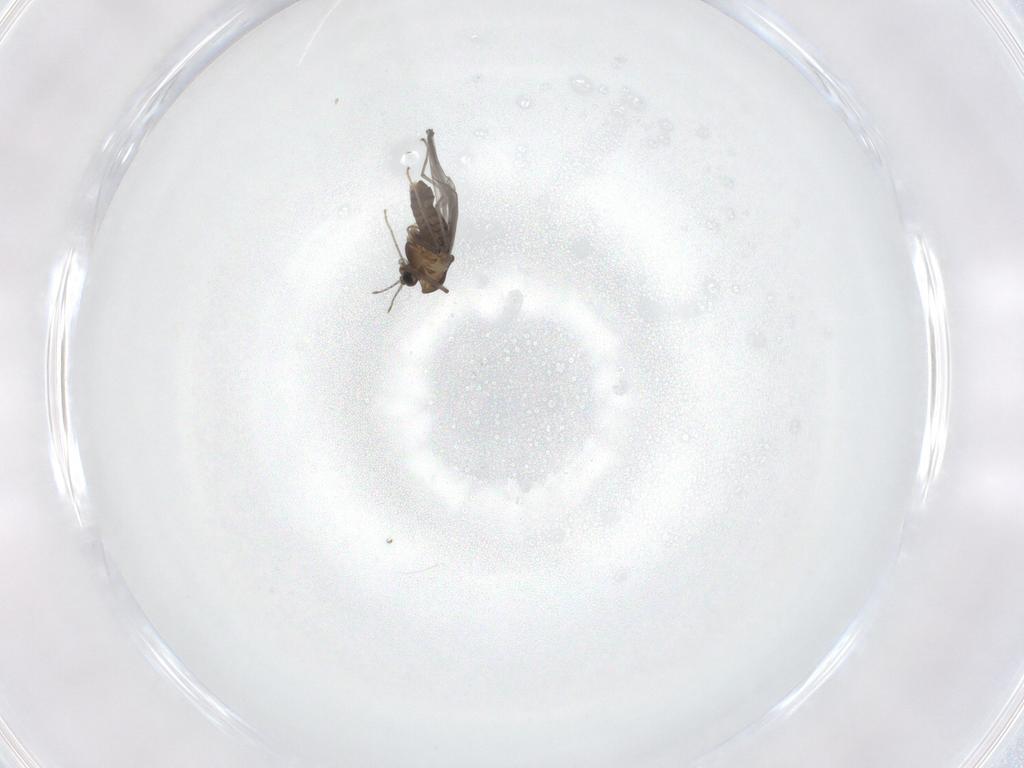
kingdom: Animalia
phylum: Arthropoda
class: Insecta
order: Diptera
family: Chironomidae
